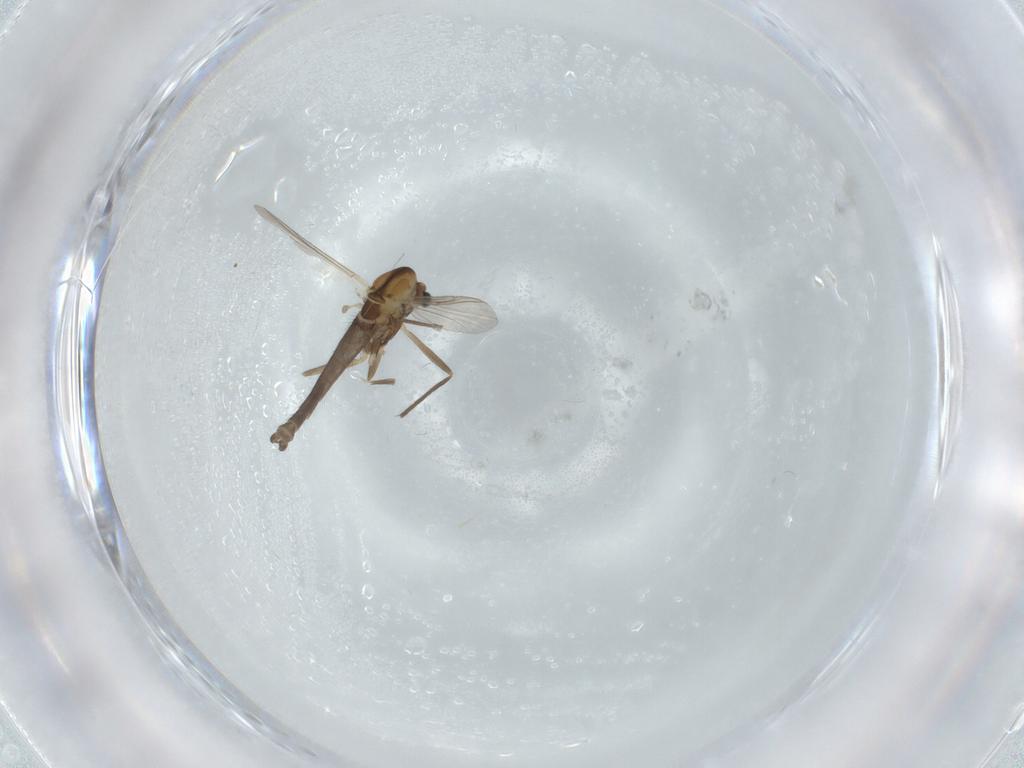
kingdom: Animalia
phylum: Arthropoda
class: Insecta
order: Diptera
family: Chironomidae
